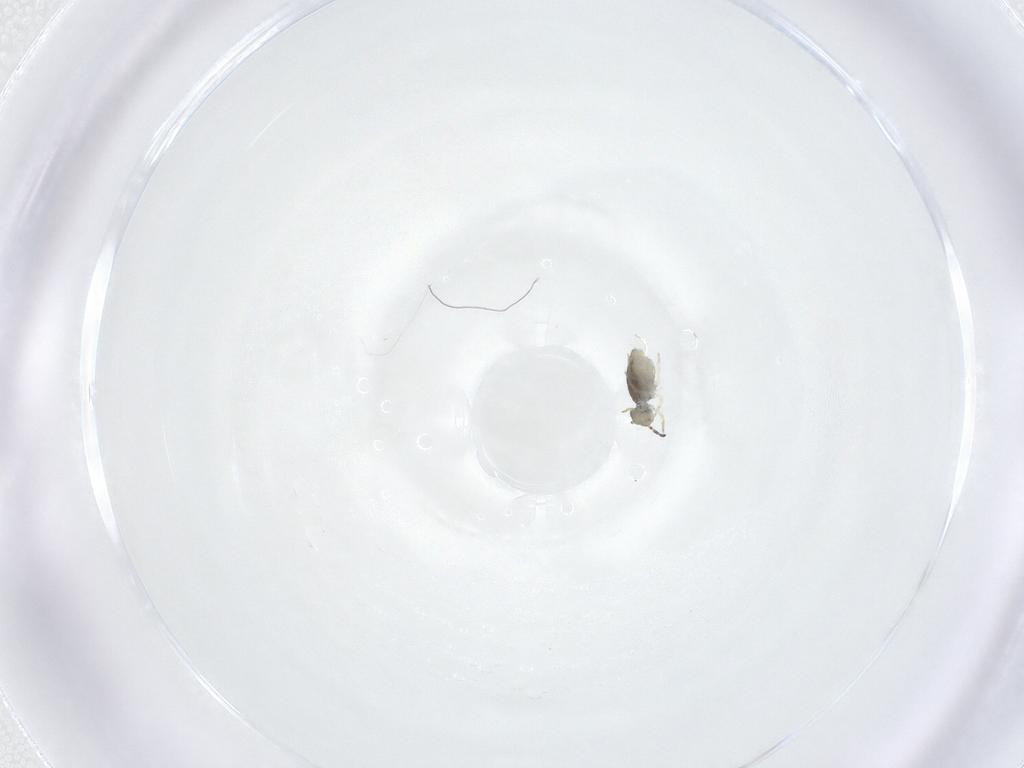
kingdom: Animalia
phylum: Arthropoda
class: Collembola
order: Symphypleona
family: Katiannidae
